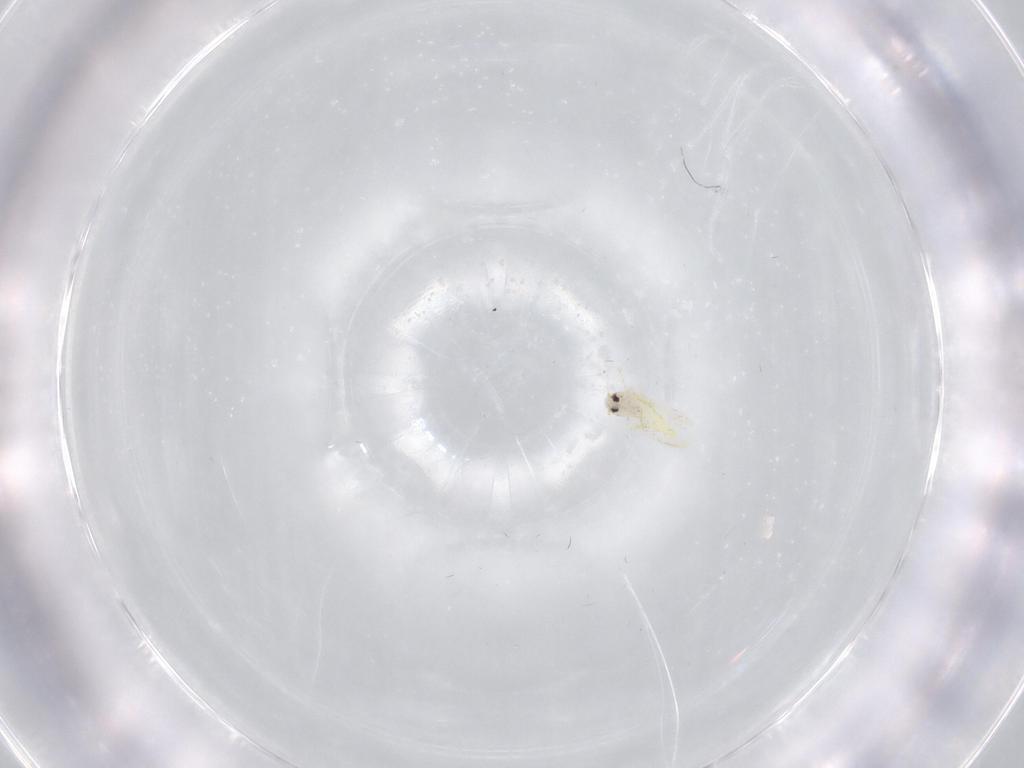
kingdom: Animalia
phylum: Arthropoda
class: Insecta
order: Hemiptera
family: Aleyrodidae
